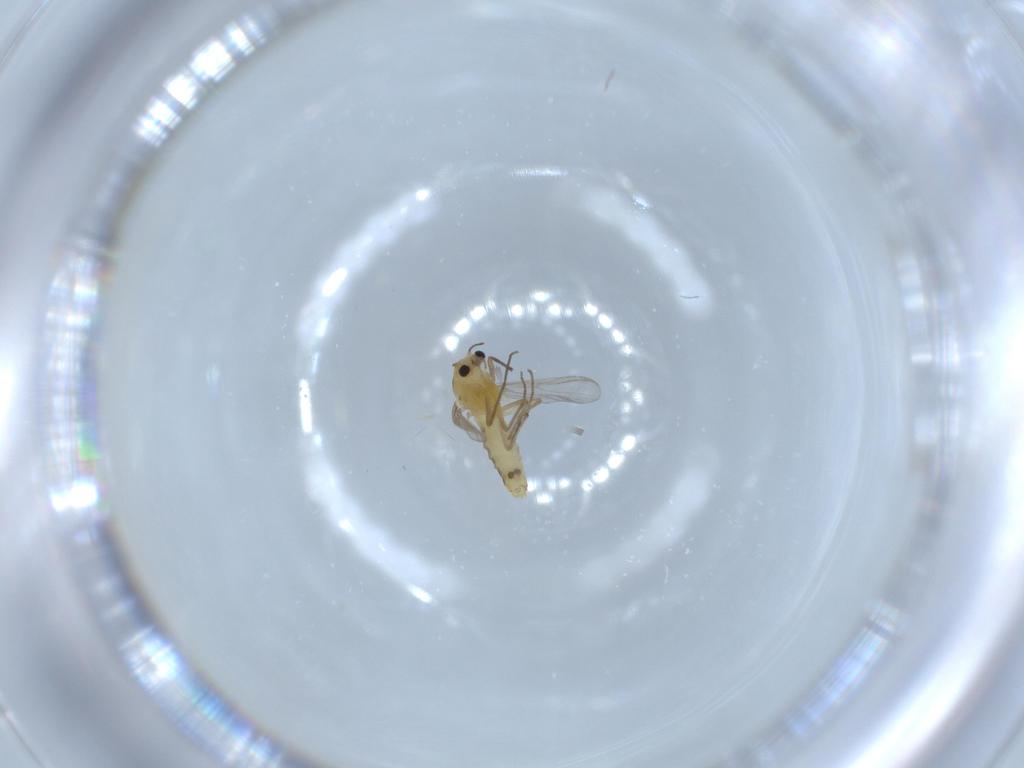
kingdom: Animalia
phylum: Arthropoda
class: Insecta
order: Diptera
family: Chironomidae
